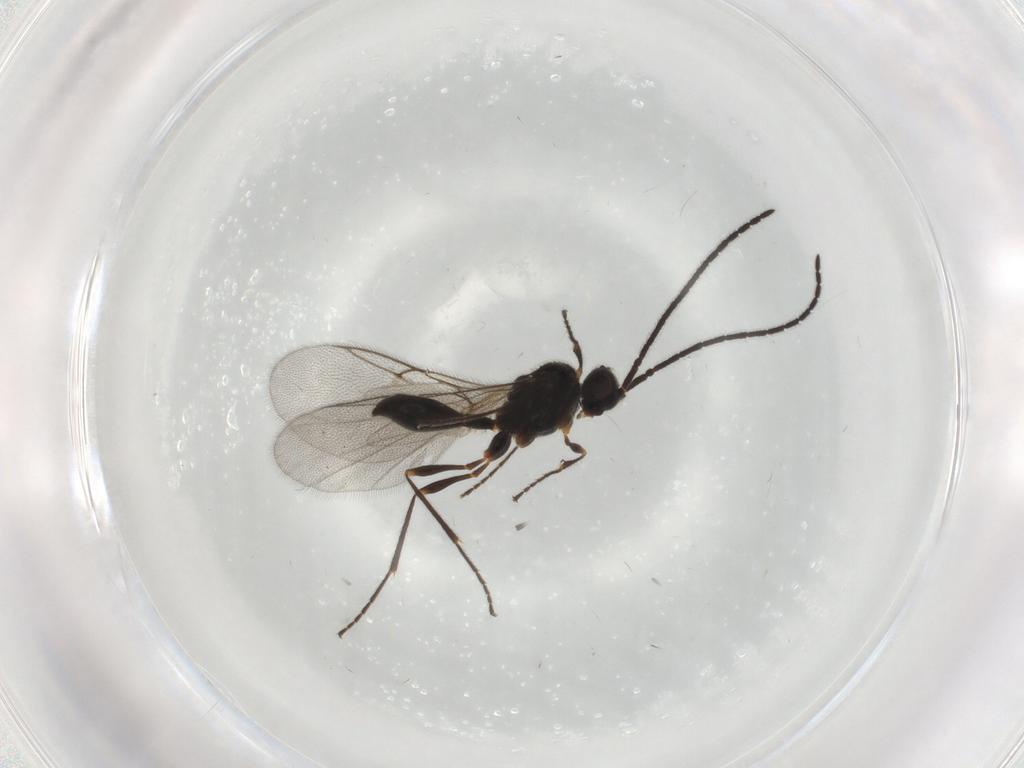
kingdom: Animalia
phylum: Arthropoda
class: Insecta
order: Hymenoptera
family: Diapriidae
